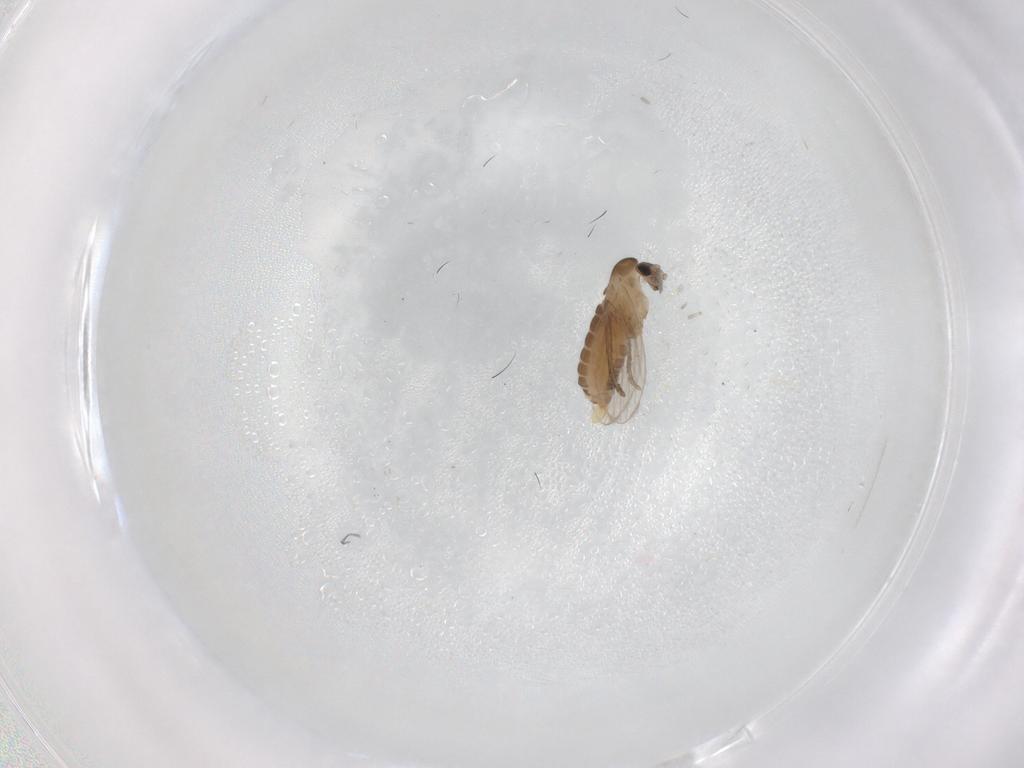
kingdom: Animalia
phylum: Arthropoda
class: Insecta
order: Diptera
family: Psychodidae
